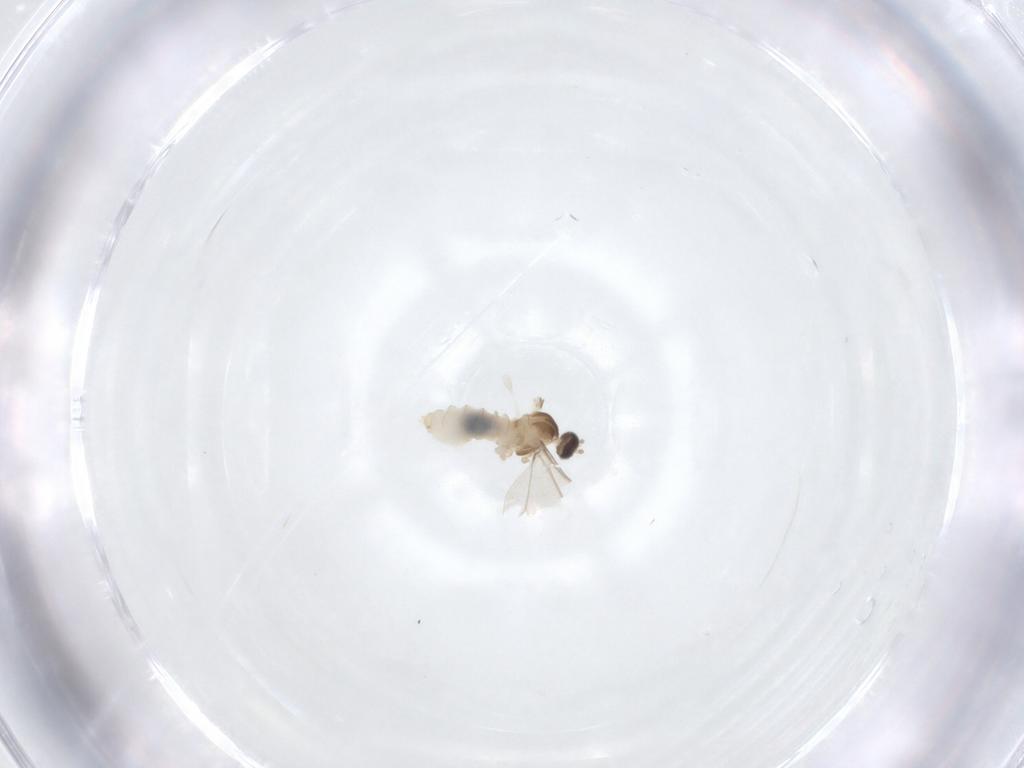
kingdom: Animalia
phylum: Arthropoda
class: Insecta
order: Diptera
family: Cecidomyiidae
